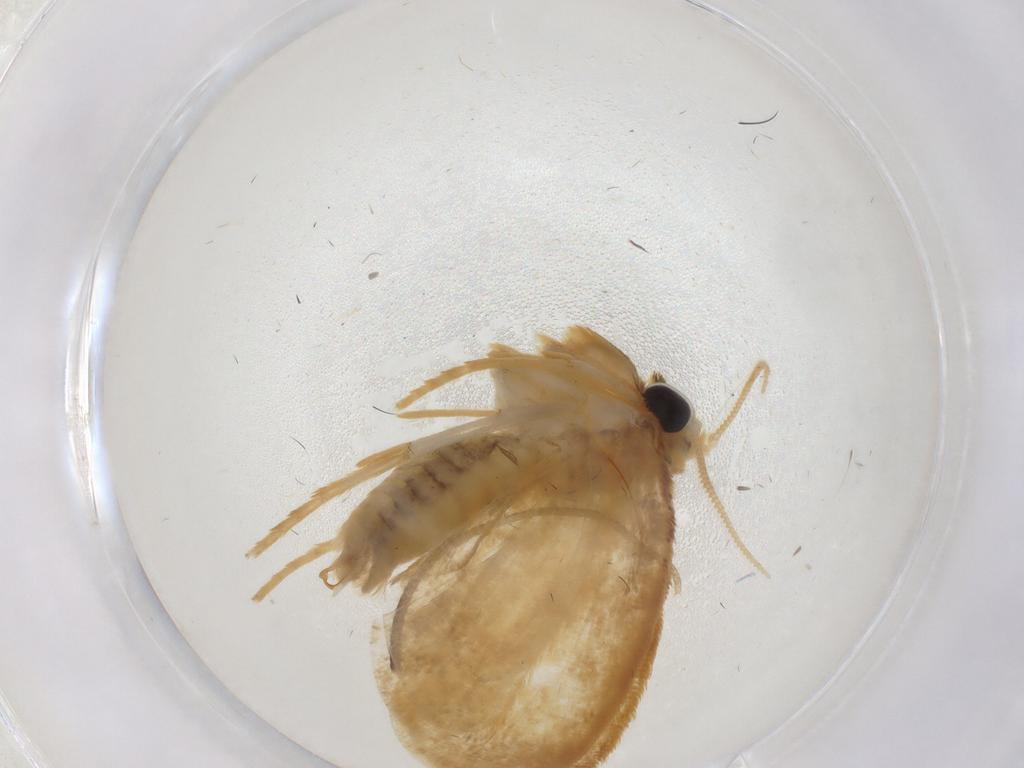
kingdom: Animalia
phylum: Arthropoda
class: Insecta
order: Lepidoptera
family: Psychidae
